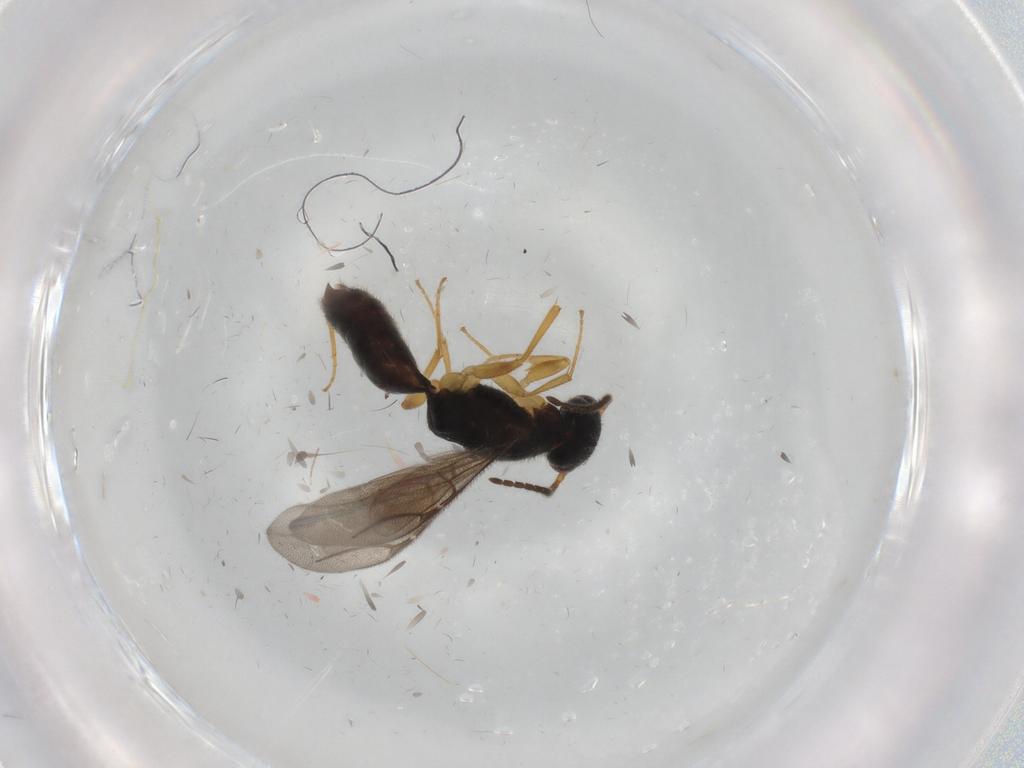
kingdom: Animalia
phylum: Arthropoda
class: Insecta
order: Hymenoptera
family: Bethylidae
